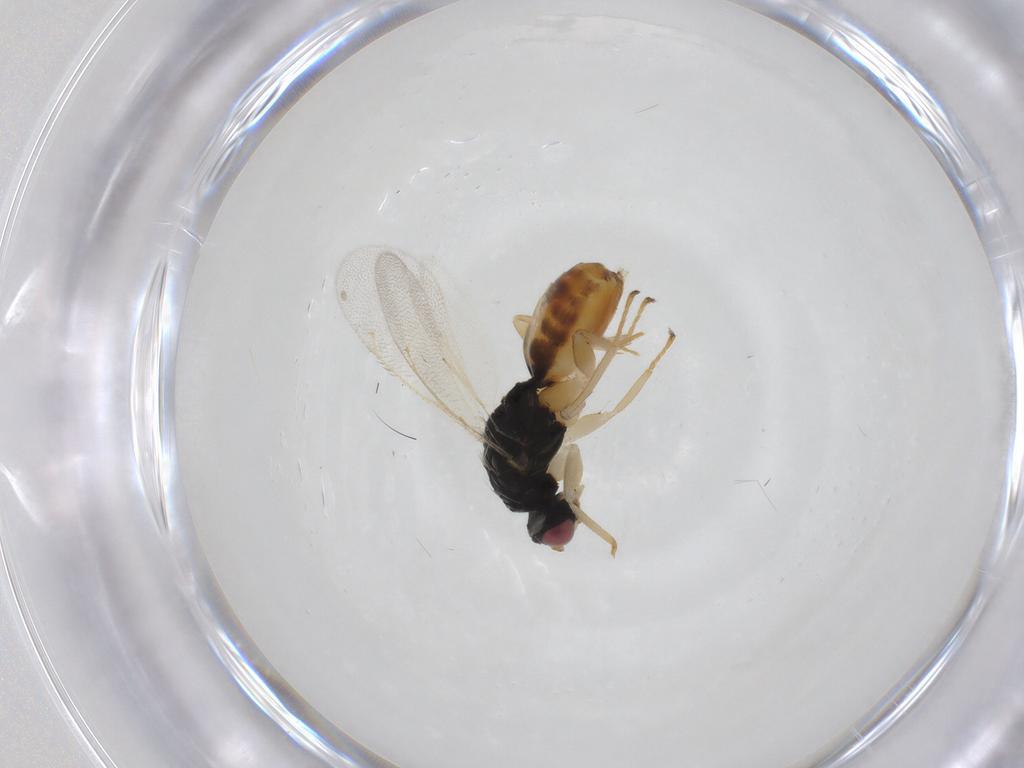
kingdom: Animalia
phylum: Arthropoda
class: Insecta
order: Hymenoptera
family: Eulophidae
